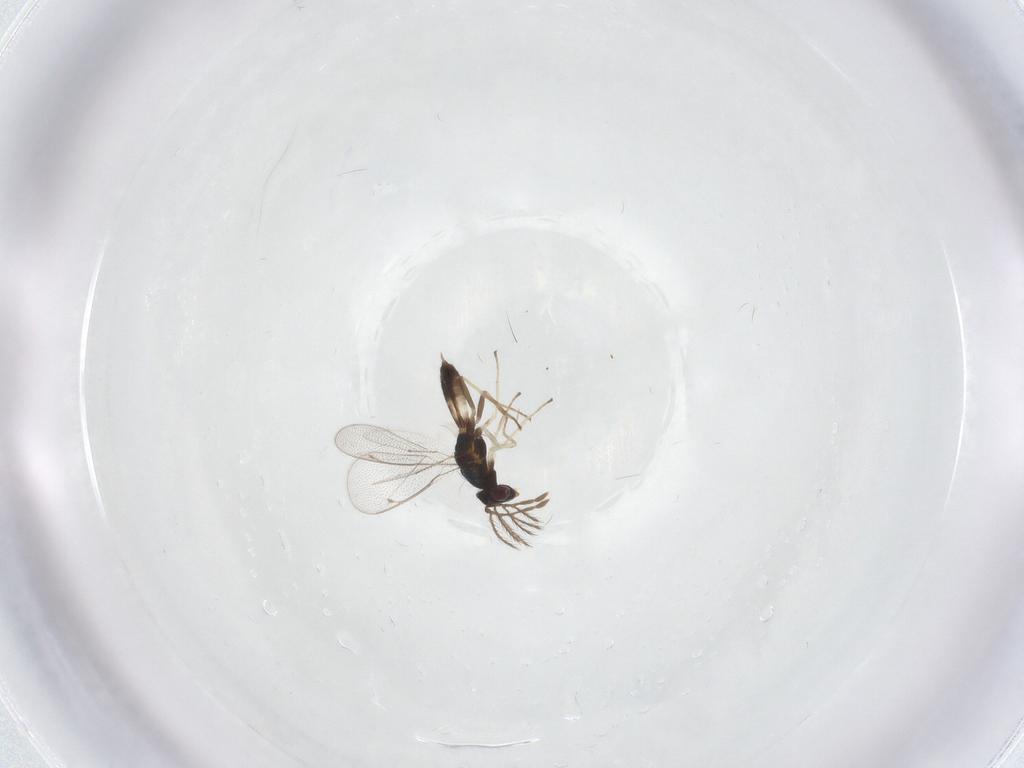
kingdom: Animalia
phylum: Arthropoda
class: Insecta
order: Hymenoptera
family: Eulophidae
